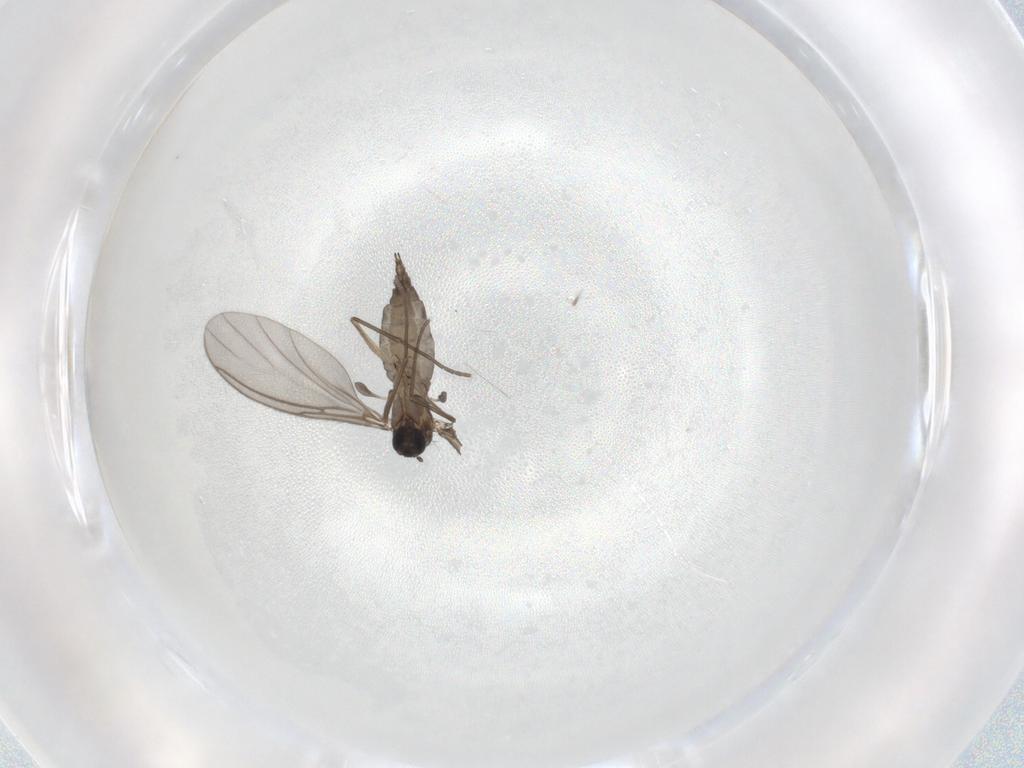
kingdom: Animalia
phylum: Arthropoda
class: Insecta
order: Diptera
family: Sciaridae
